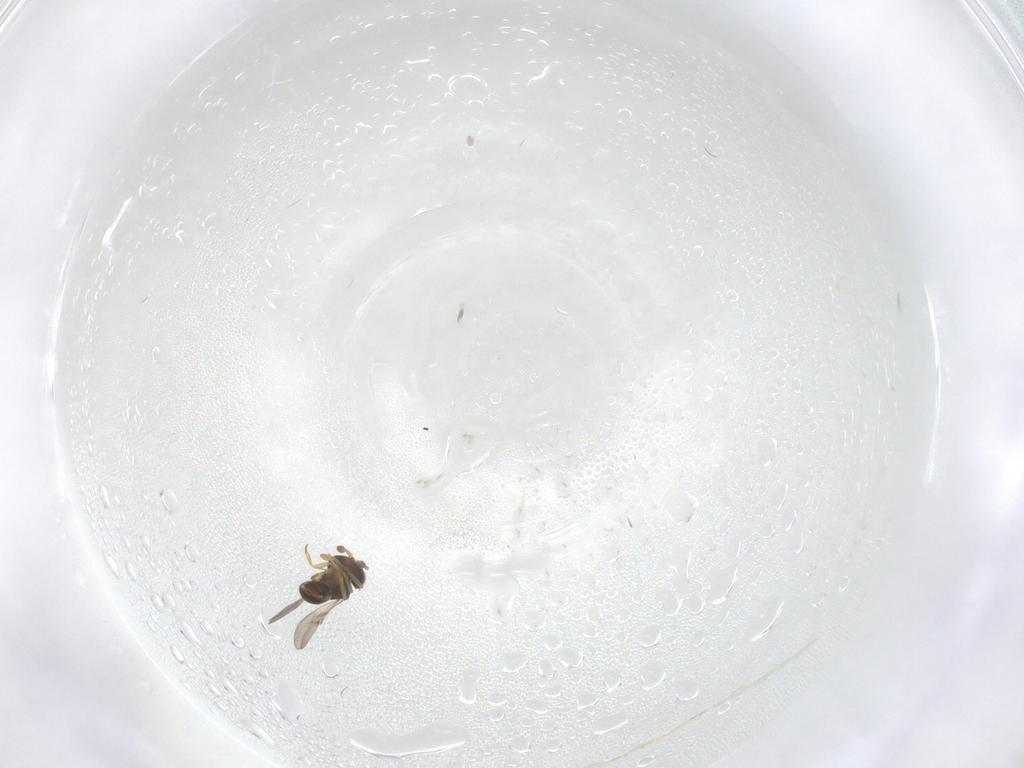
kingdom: Animalia
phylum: Arthropoda
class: Insecta
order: Hymenoptera
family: Scelionidae
